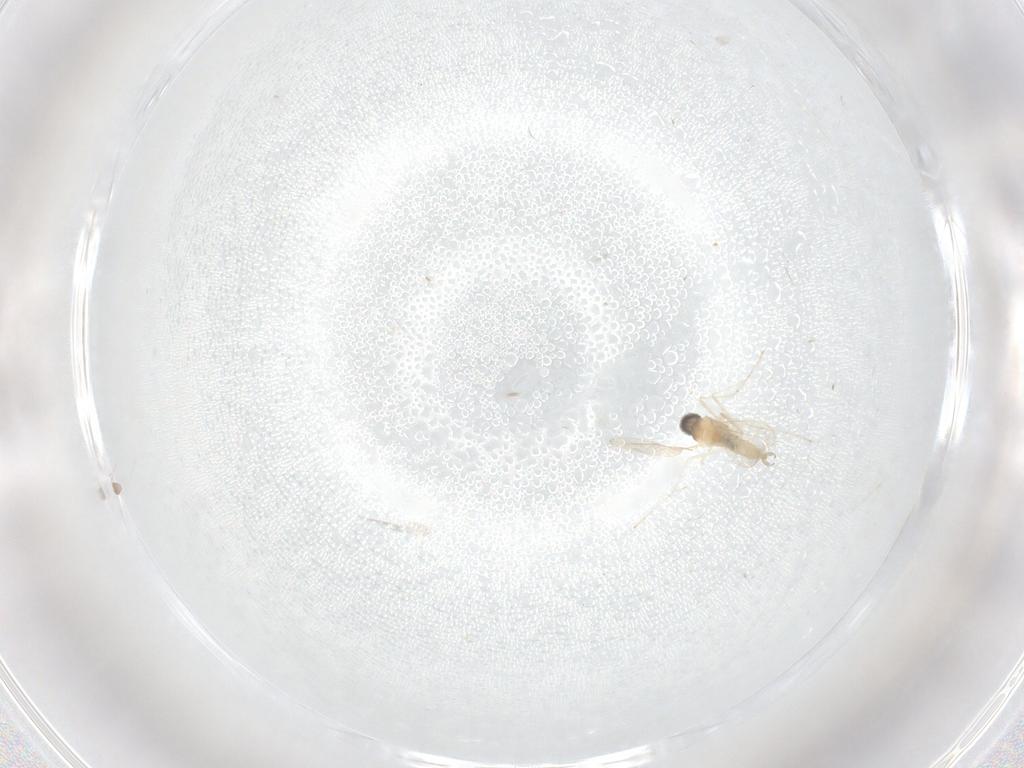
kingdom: Animalia
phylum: Arthropoda
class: Insecta
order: Diptera
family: Cecidomyiidae
